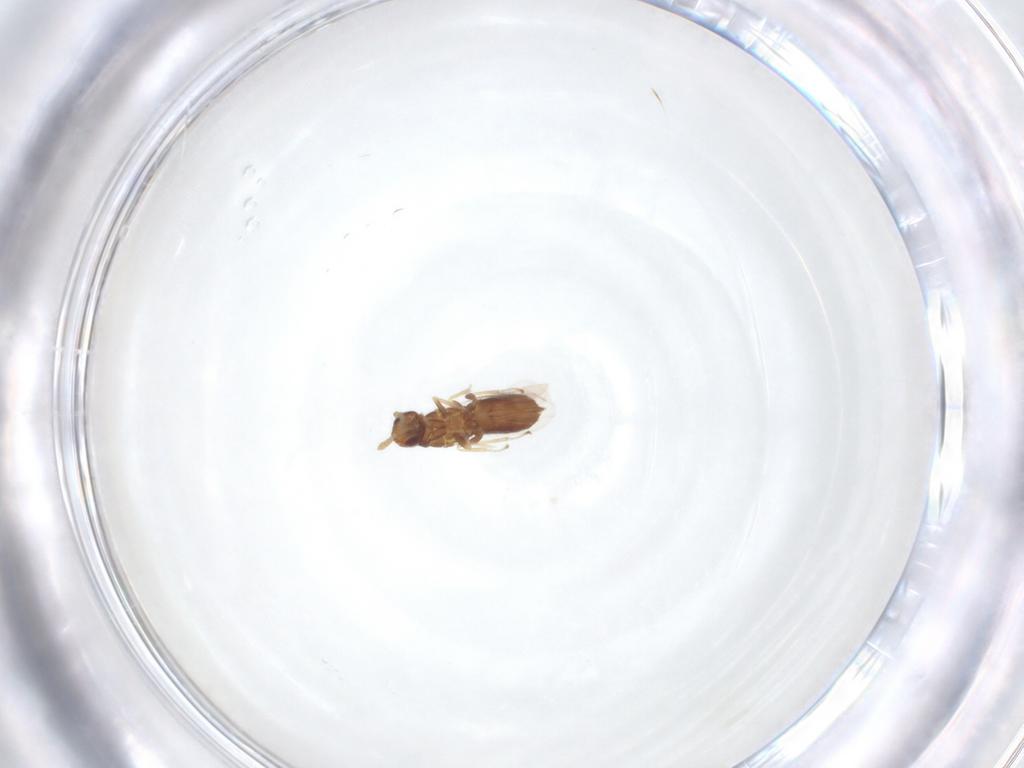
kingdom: Animalia
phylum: Arthropoda
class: Insecta
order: Hymenoptera
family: Eulophidae
